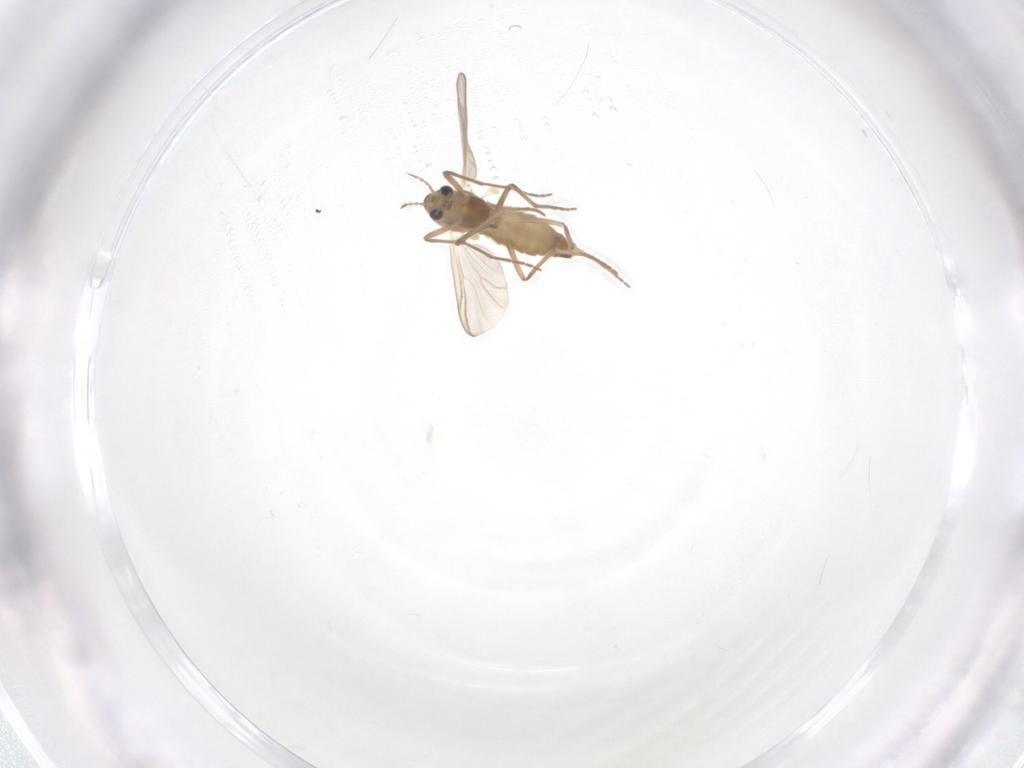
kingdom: Animalia
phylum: Arthropoda
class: Insecta
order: Diptera
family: Chironomidae
